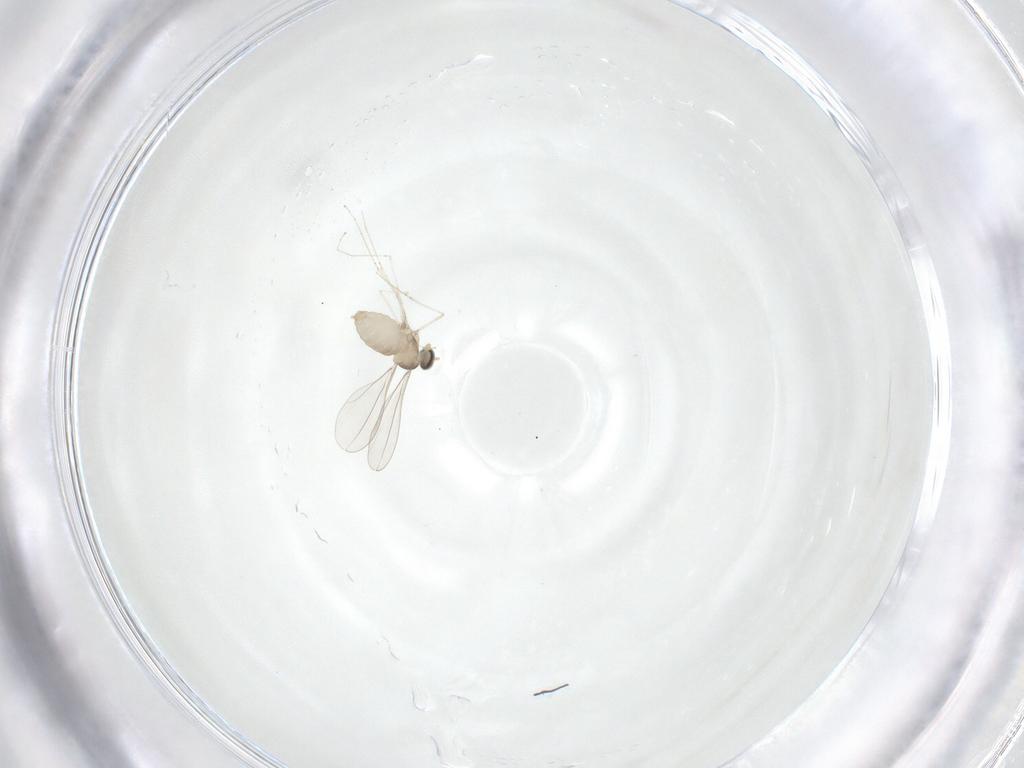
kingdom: Animalia
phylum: Arthropoda
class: Insecta
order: Diptera
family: Cecidomyiidae
